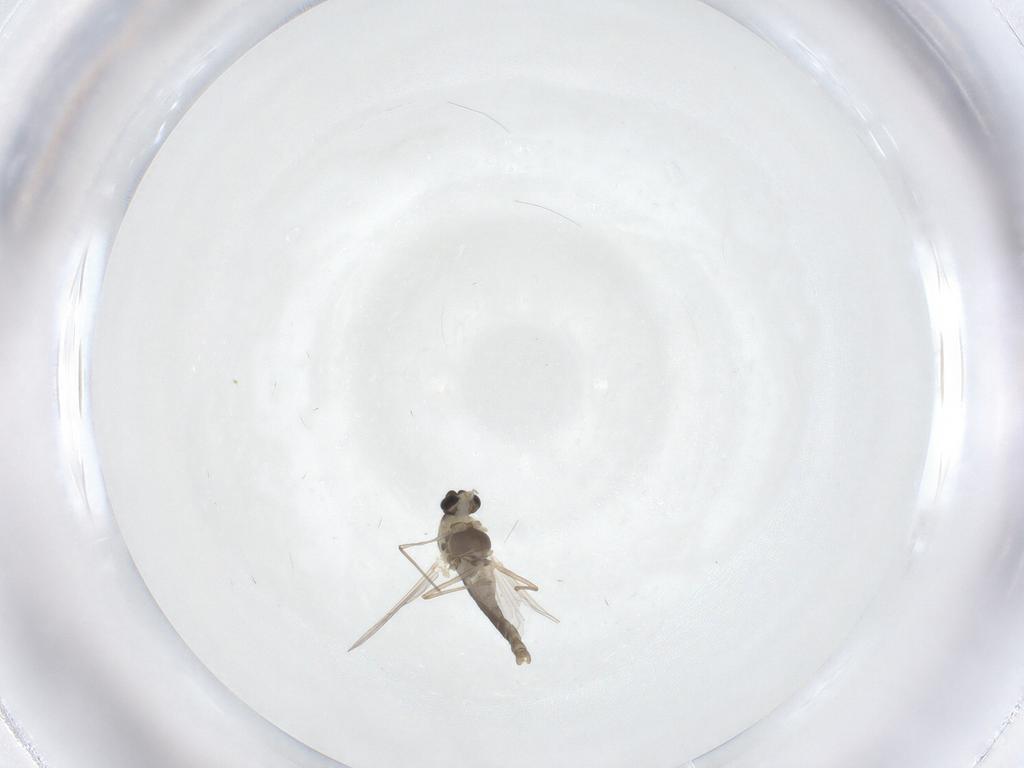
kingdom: Animalia
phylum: Arthropoda
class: Insecta
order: Diptera
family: Chironomidae
